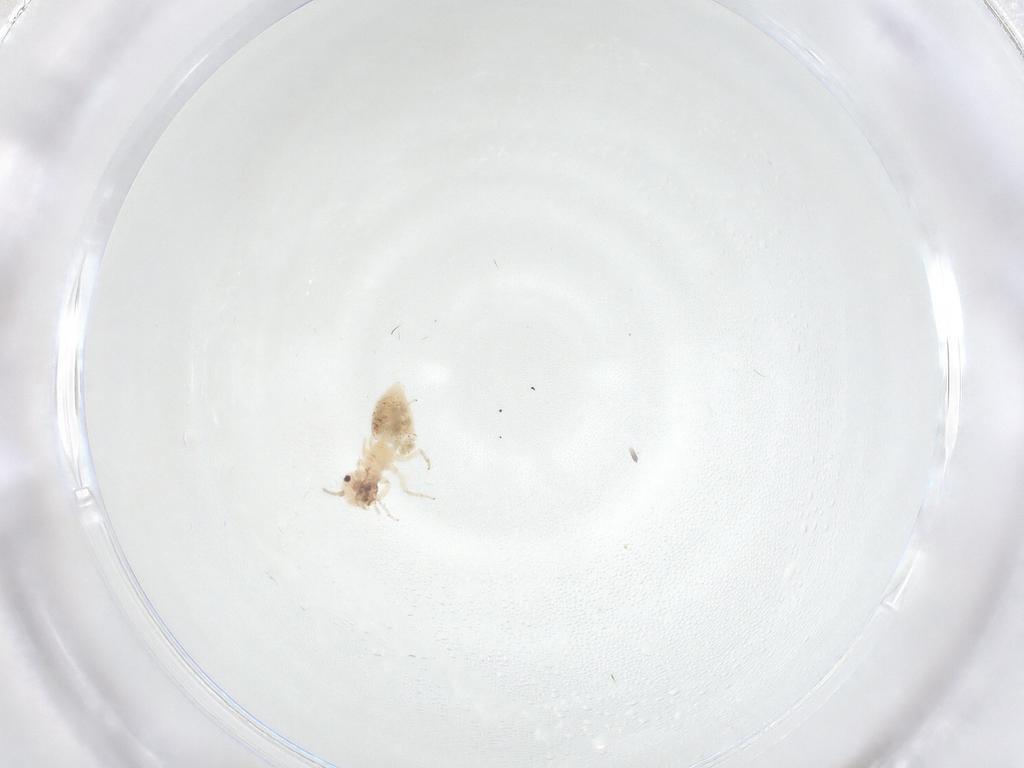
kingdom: Animalia
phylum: Arthropoda
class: Insecta
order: Psocodea
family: Ectopsocidae
